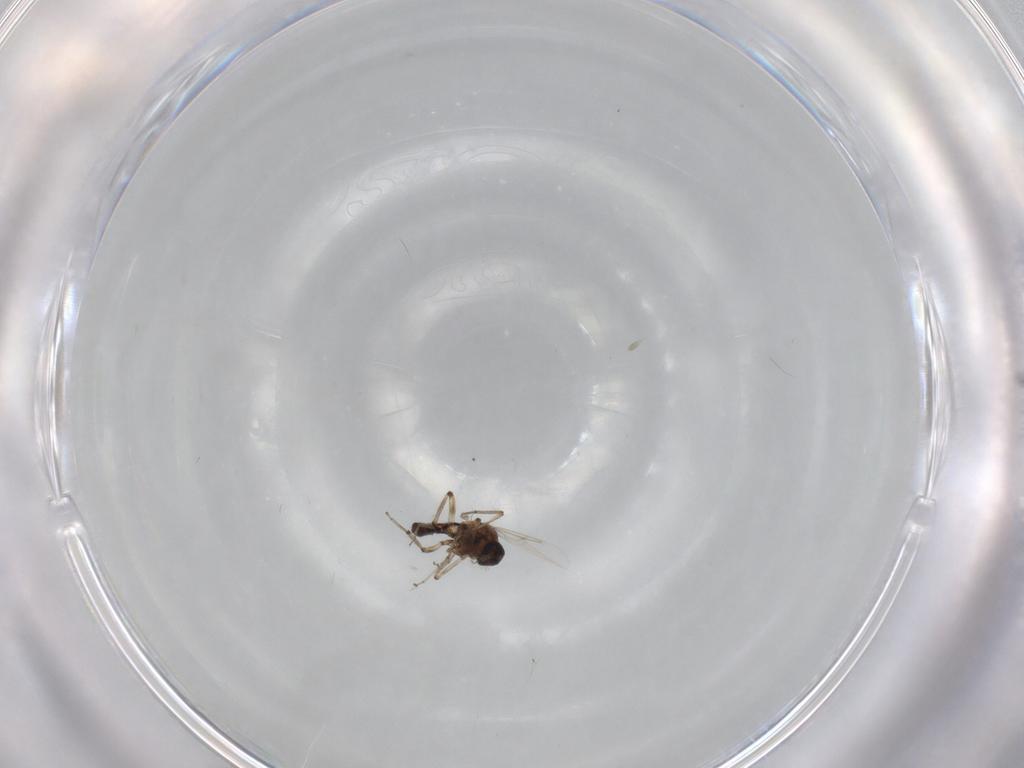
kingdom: Animalia
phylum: Arthropoda
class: Insecta
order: Diptera
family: Ceratopogonidae
